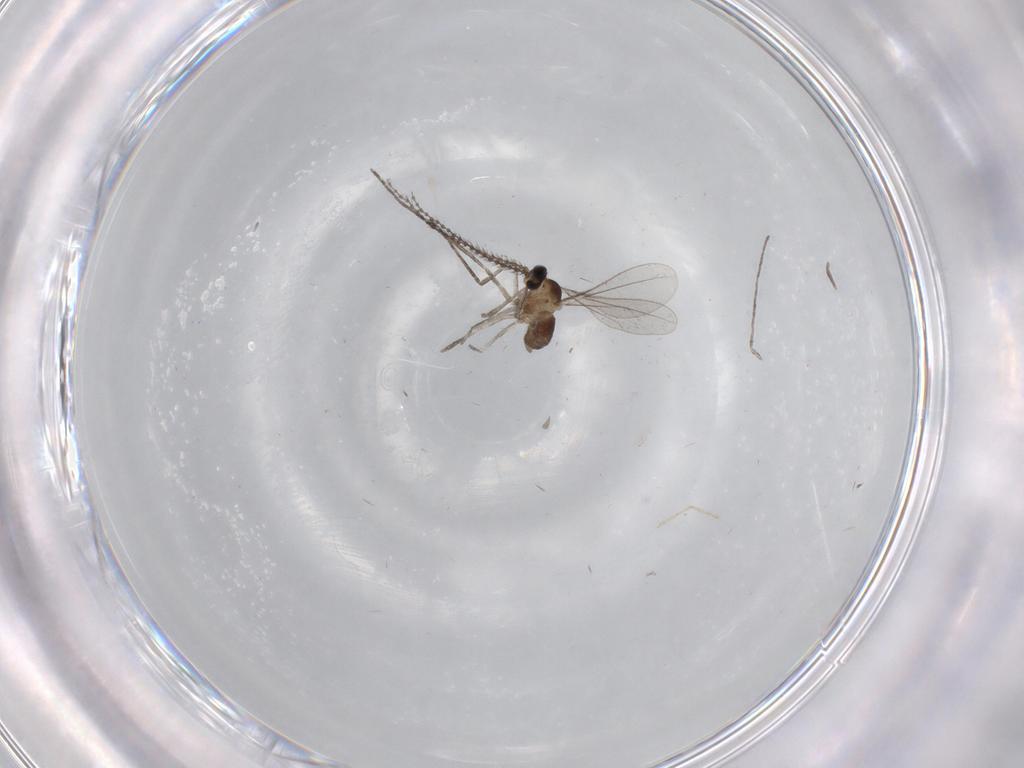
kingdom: Animalia
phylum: Arthropoda
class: Insecta
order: Diptera
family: Cecidomyiidae
